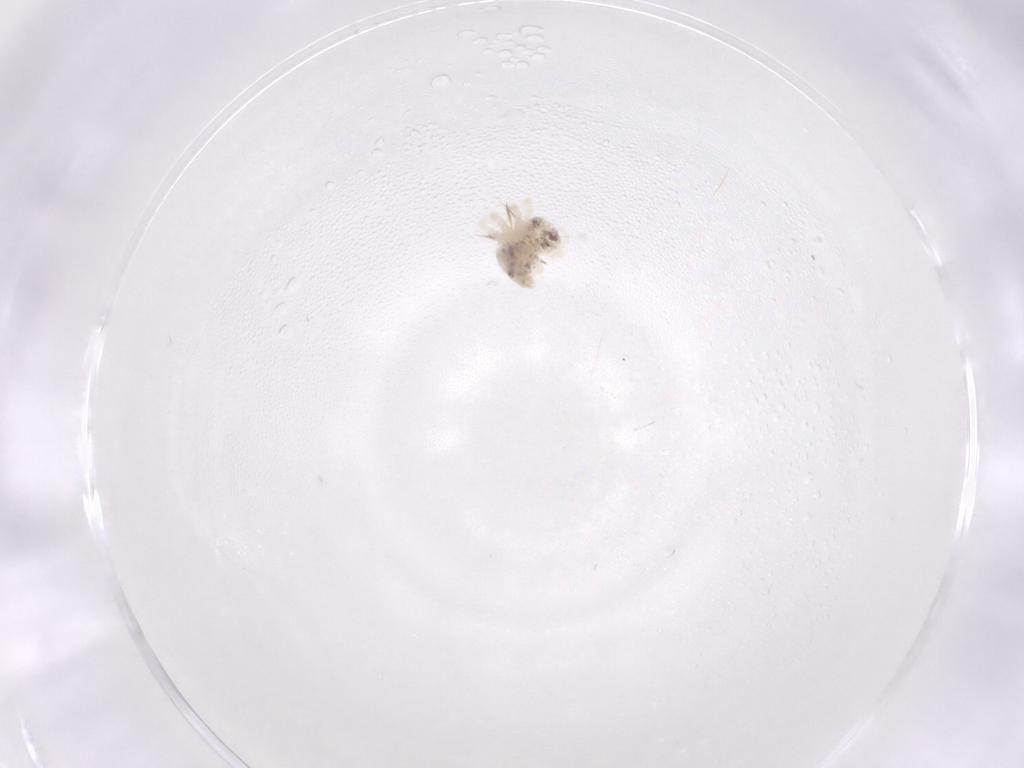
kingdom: Animalia
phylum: Arthropoda
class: Arachnida
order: Trombidiformes
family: Anystidae
